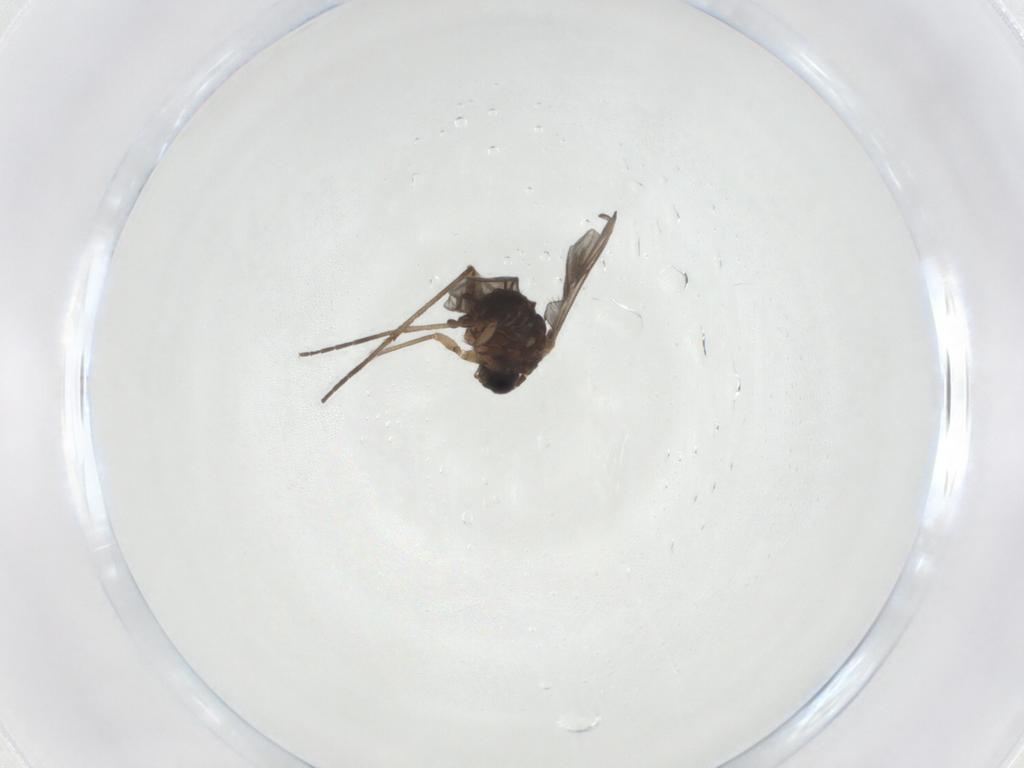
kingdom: Animalia
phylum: Arthropoda
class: Insecta
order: Diptera
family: Sciaridae
